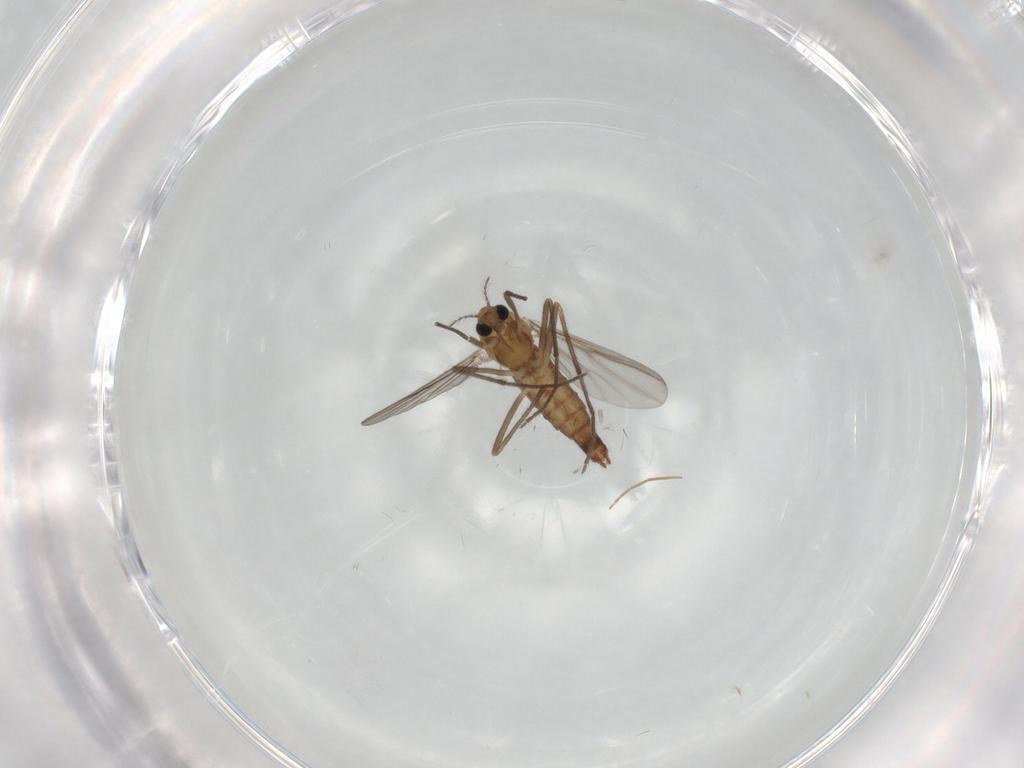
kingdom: Animalia
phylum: Arthropoda
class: Insecta
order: Diptera
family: Chironomidae
